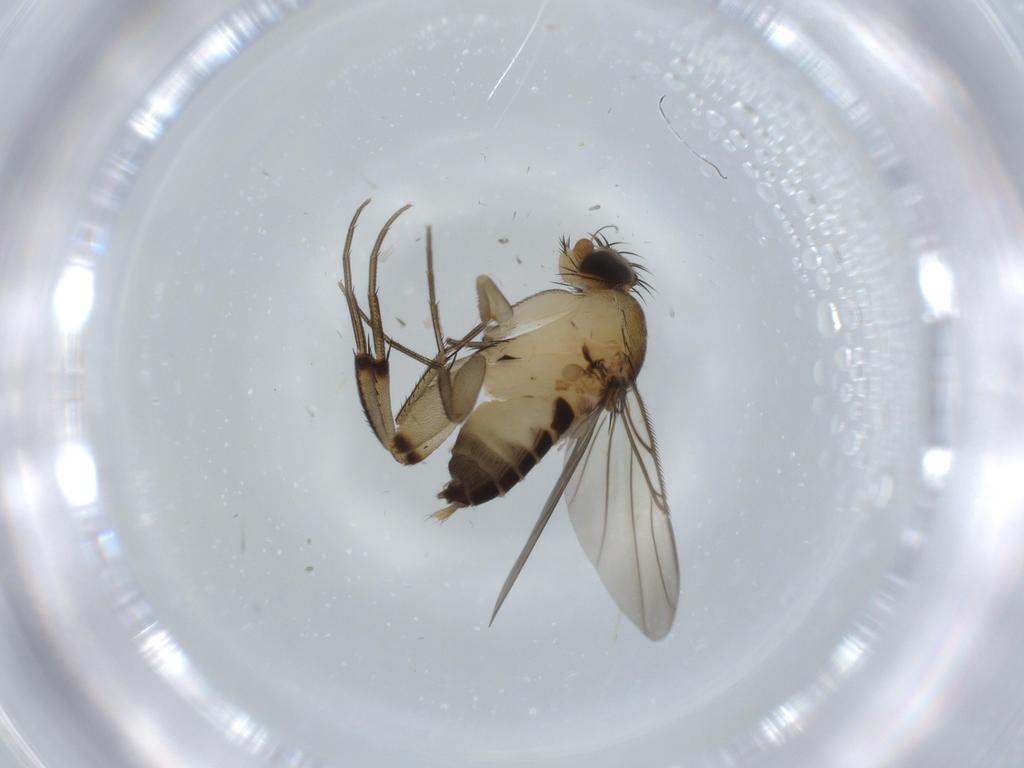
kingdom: Animalia
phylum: Arthropoda
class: Insecta
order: Diptera
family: Phoridae
